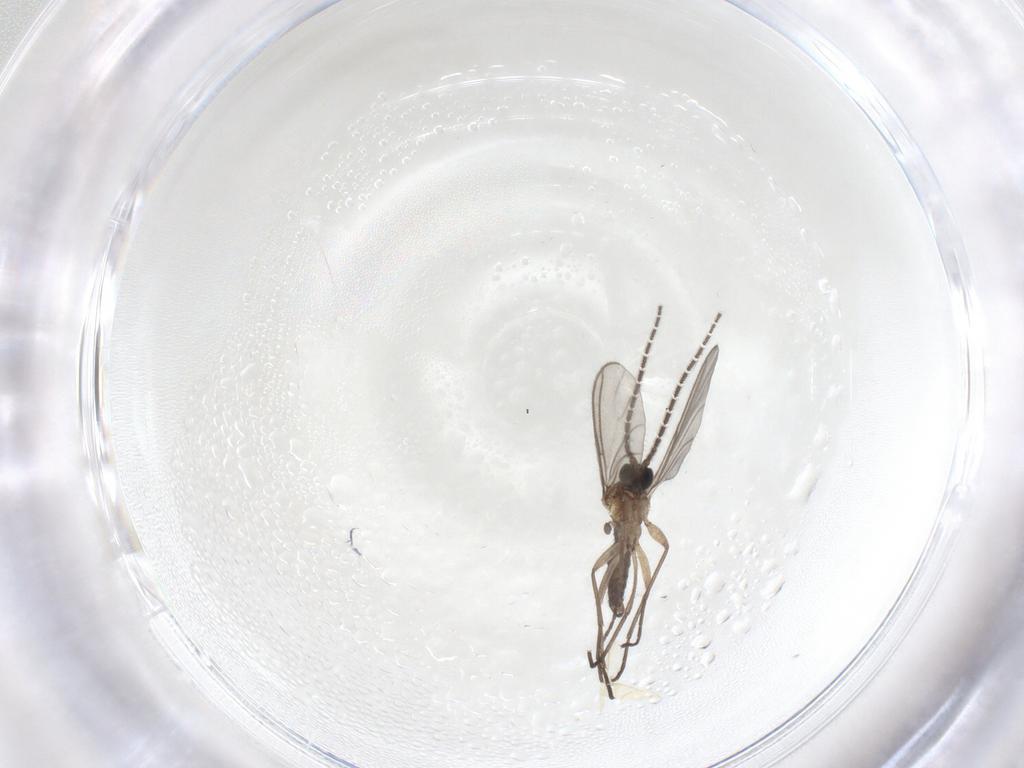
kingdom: Animalia
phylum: Arthropoda
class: Insecta
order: Diptera
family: Sciaridae
